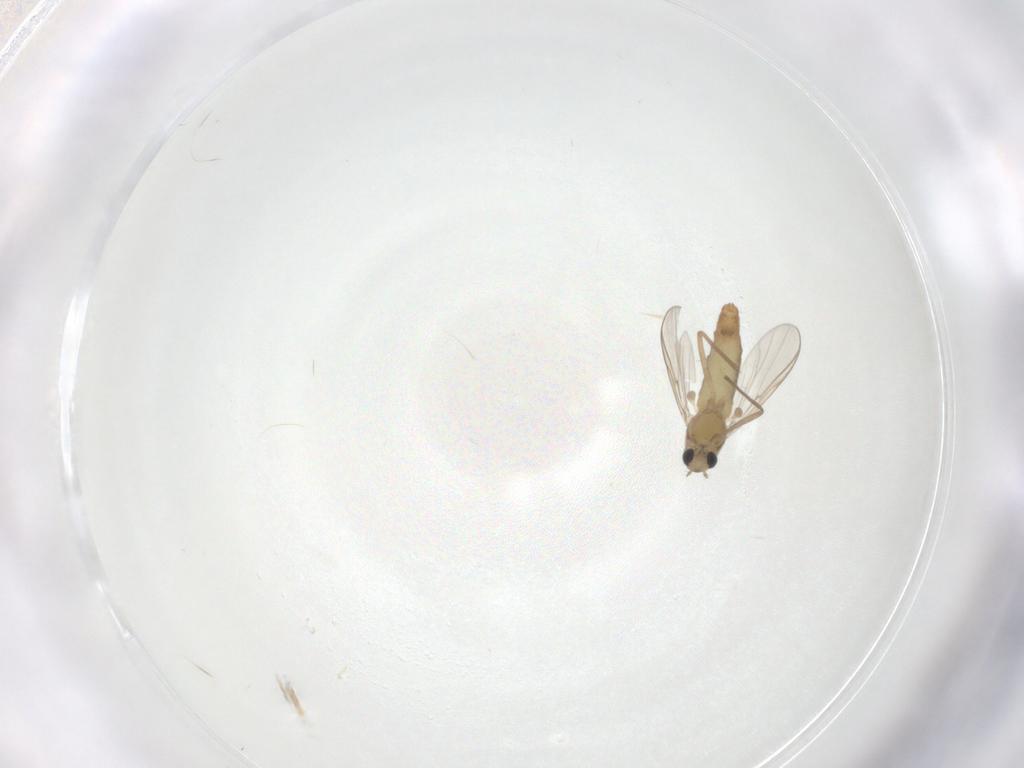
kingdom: Animalia
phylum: Arthropoda
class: Insecta
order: Diptera
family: Chironomidae
